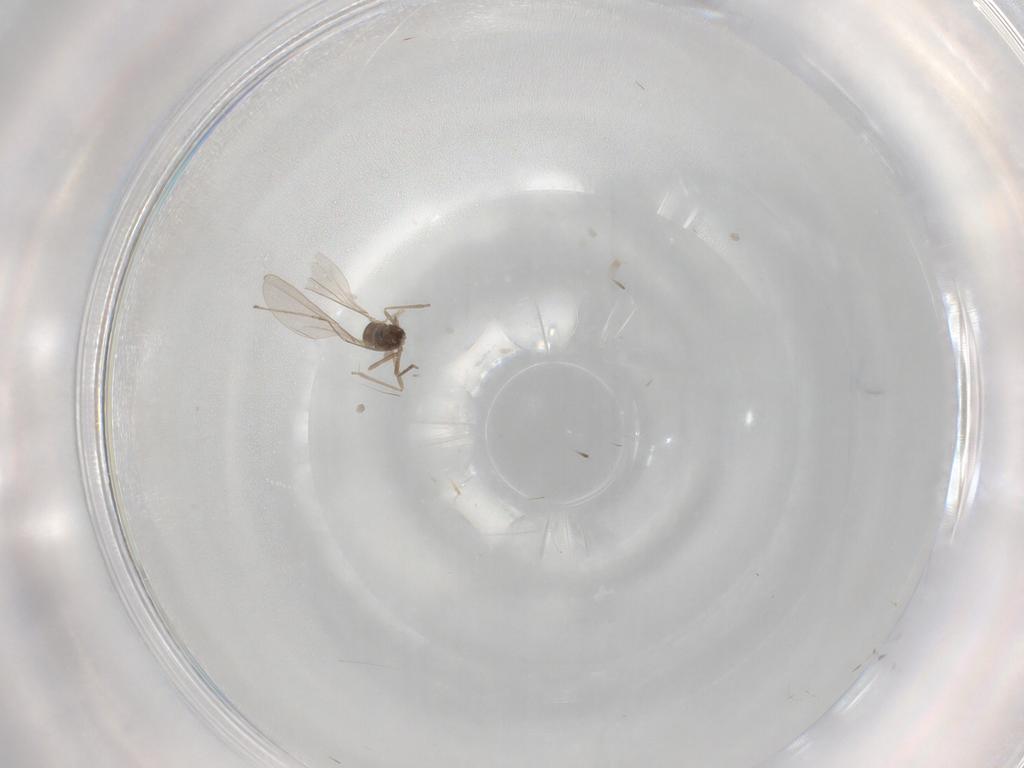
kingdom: Animalia
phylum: Arthropoda
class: Insecta
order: Diptera
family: Cecidomyiidae
